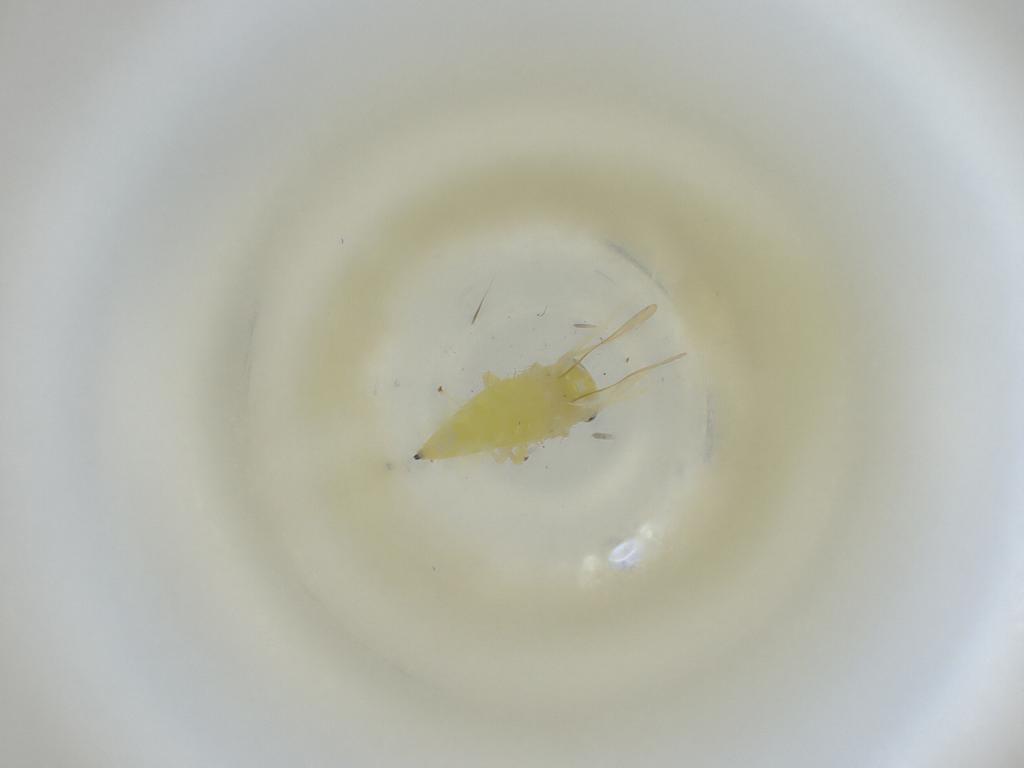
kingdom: Animalia
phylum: Arthropoda
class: Insecta
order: Hemiptera
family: Cicadellidae
